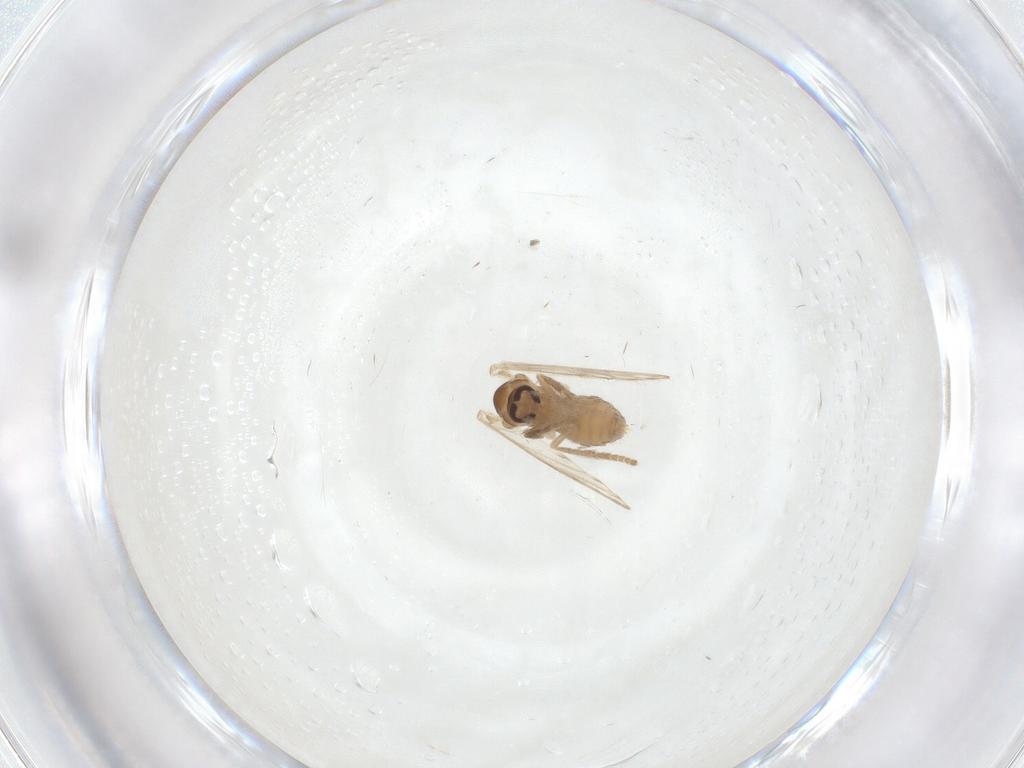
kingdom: Animalia
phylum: Arthropoda
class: Insecta
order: Diptera
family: Psychodidae
